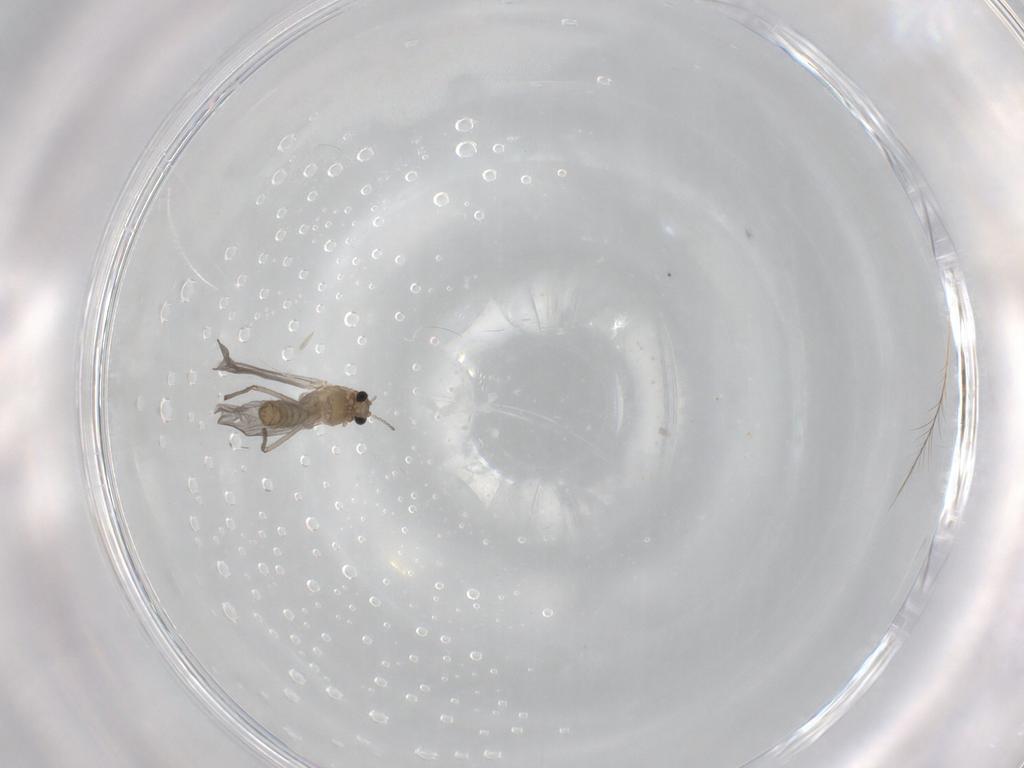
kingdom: Animalia
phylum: Arthropoda
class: Insecta
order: Diptera
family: Chironomidae
